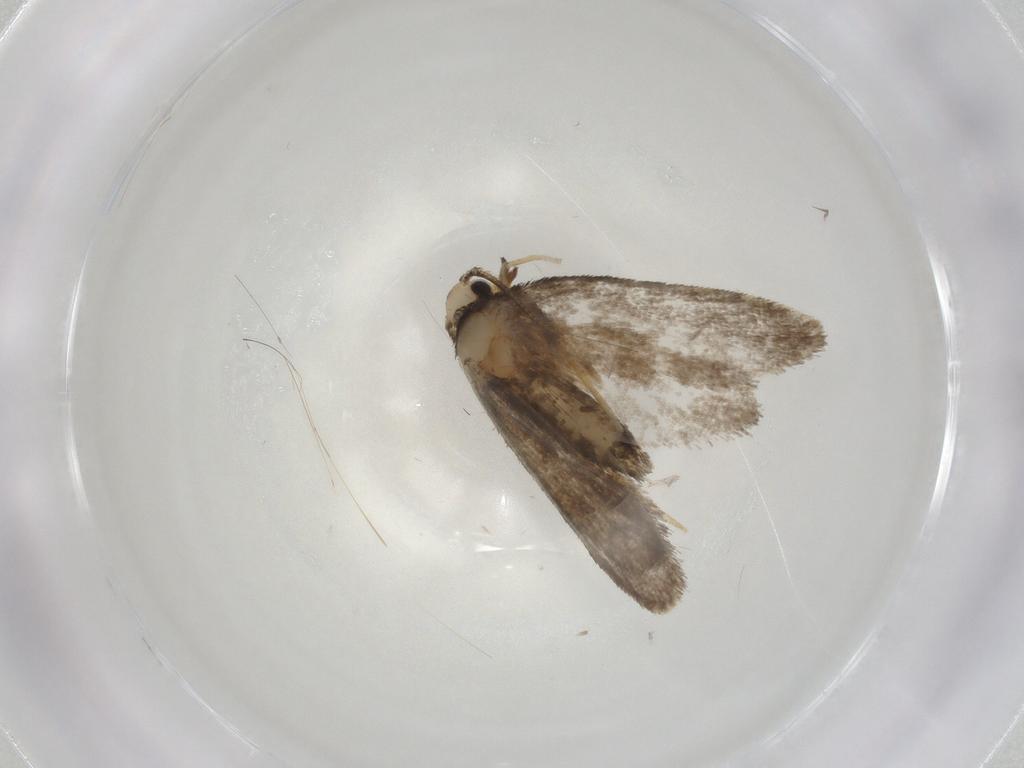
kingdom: Animalia
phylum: Arthropoda
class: Insecta
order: Lepidoptera
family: Psychidae
